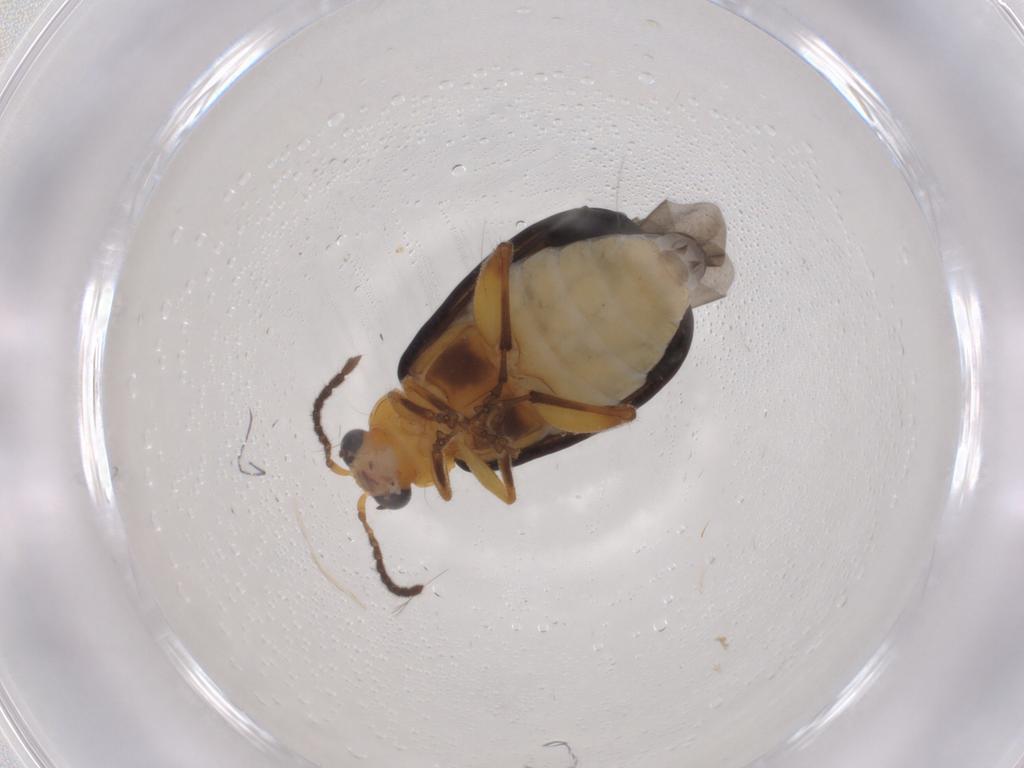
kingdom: Animalia
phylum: Arthropoda
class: Insecta
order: Coleoptera
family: Chrysomelidae
